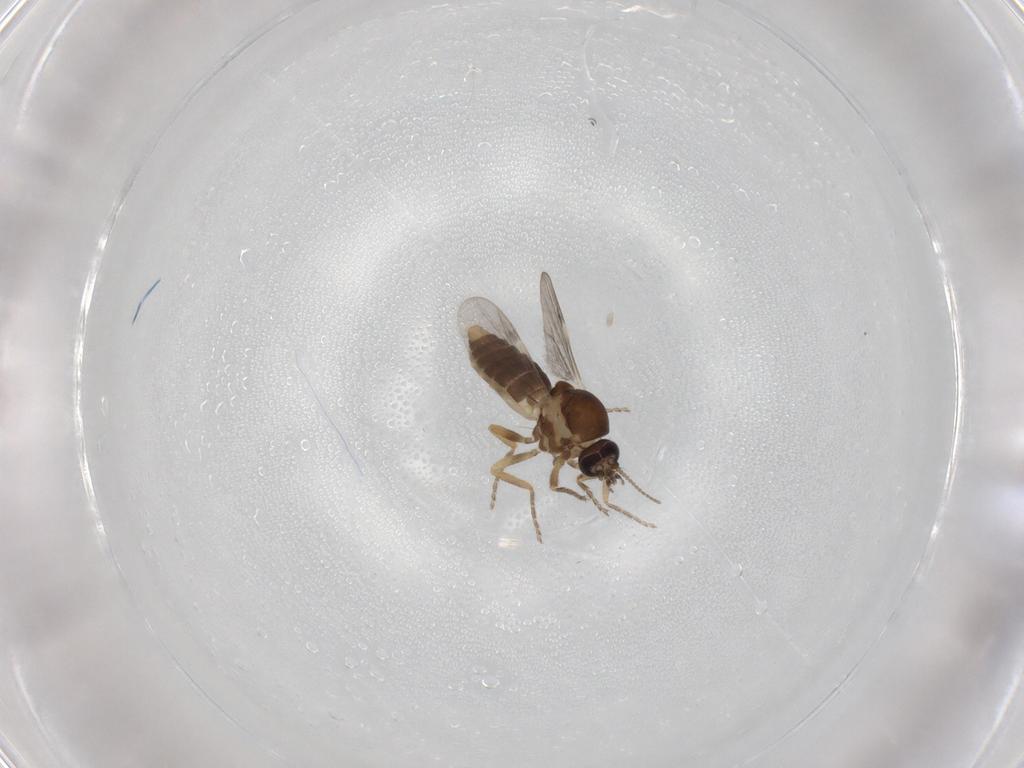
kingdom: Animalia
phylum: Arthropoda
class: Insecta
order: Diptera
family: Ceratopogonidae
